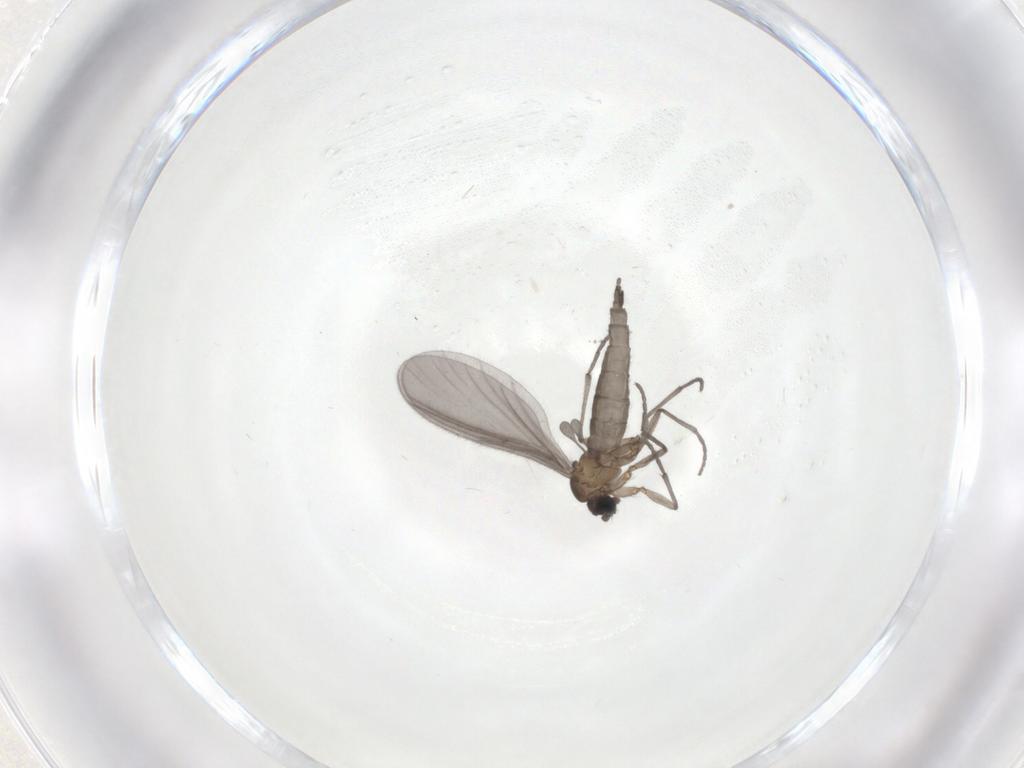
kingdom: Animalia
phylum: Arthropoda
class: Insecta
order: Diptera
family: Sciaridae
